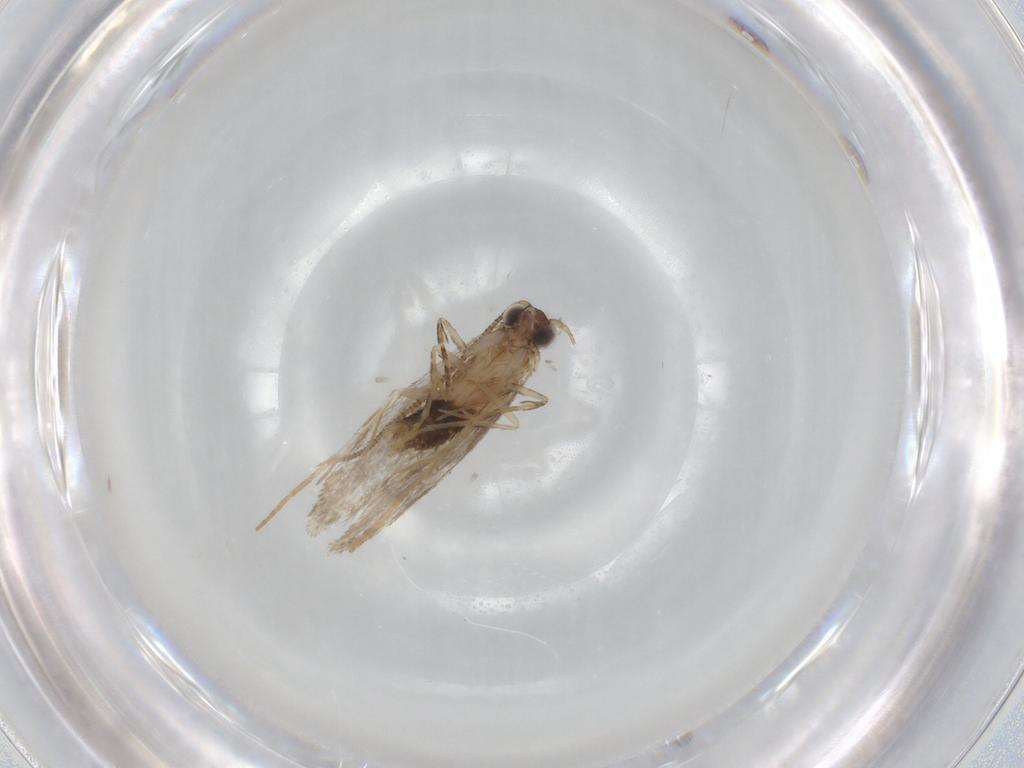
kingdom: Animalia
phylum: Arthropoda
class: Insecta
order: Lepidoptera
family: Tineidae
